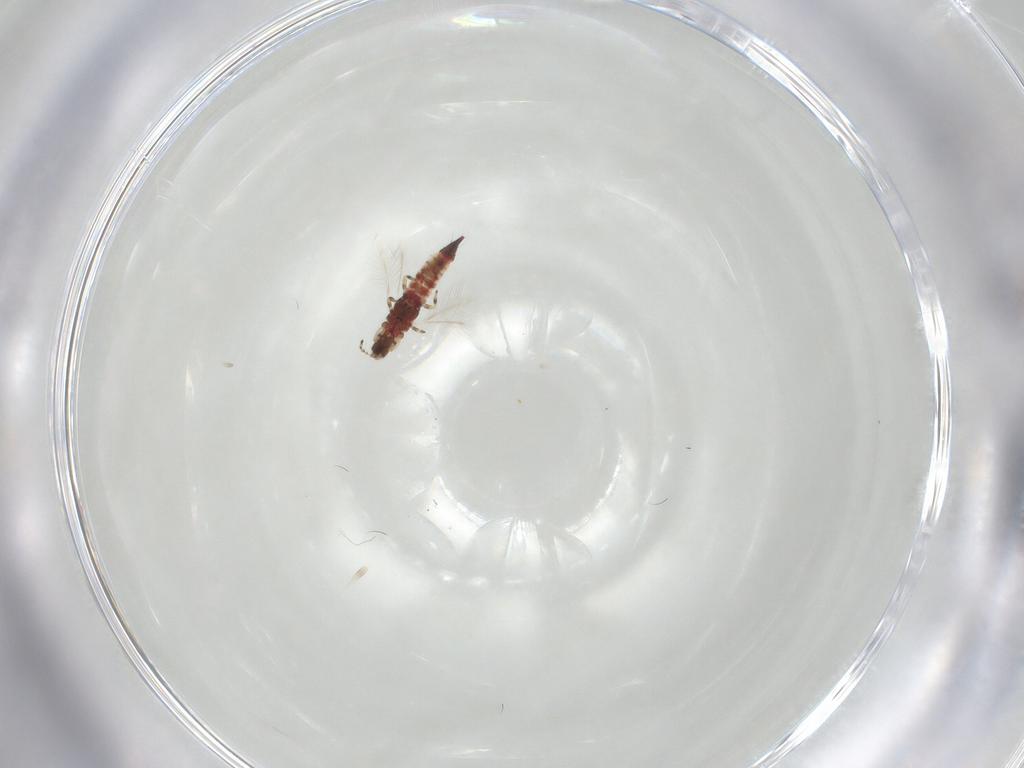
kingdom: Animalia
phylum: Arthropoda
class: Insecta
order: Thysanoptera
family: Phlaeothripidae
